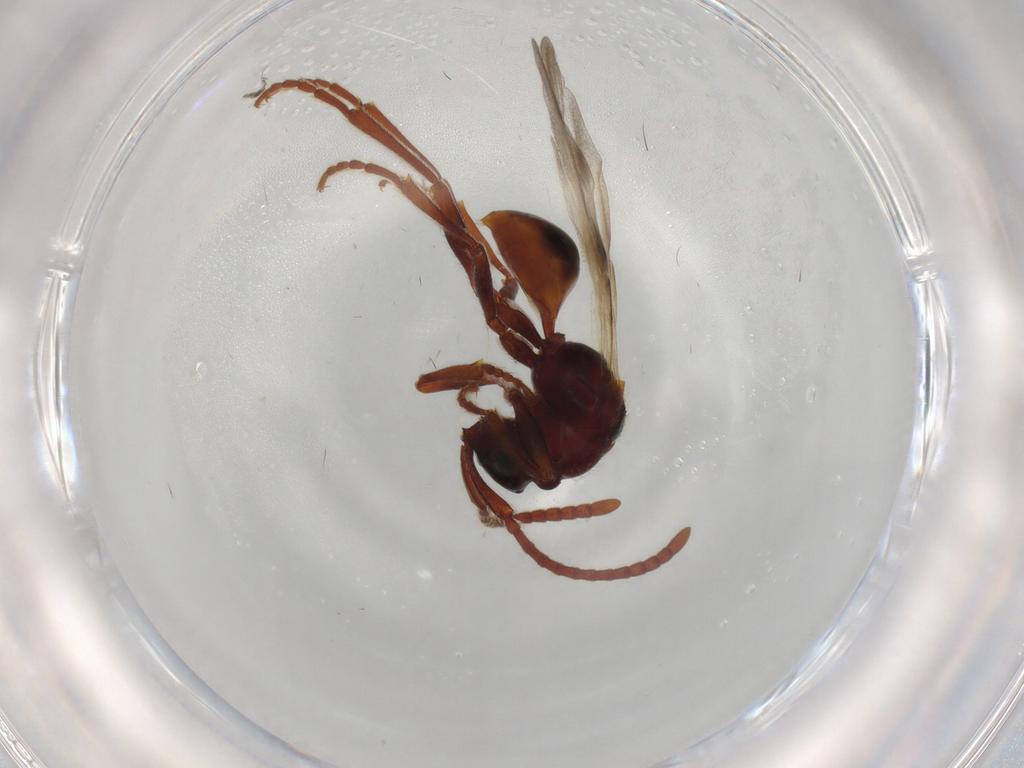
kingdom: Animalia
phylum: Arthropoda
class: Insecta
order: Hymenoptera
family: Chrysididae
